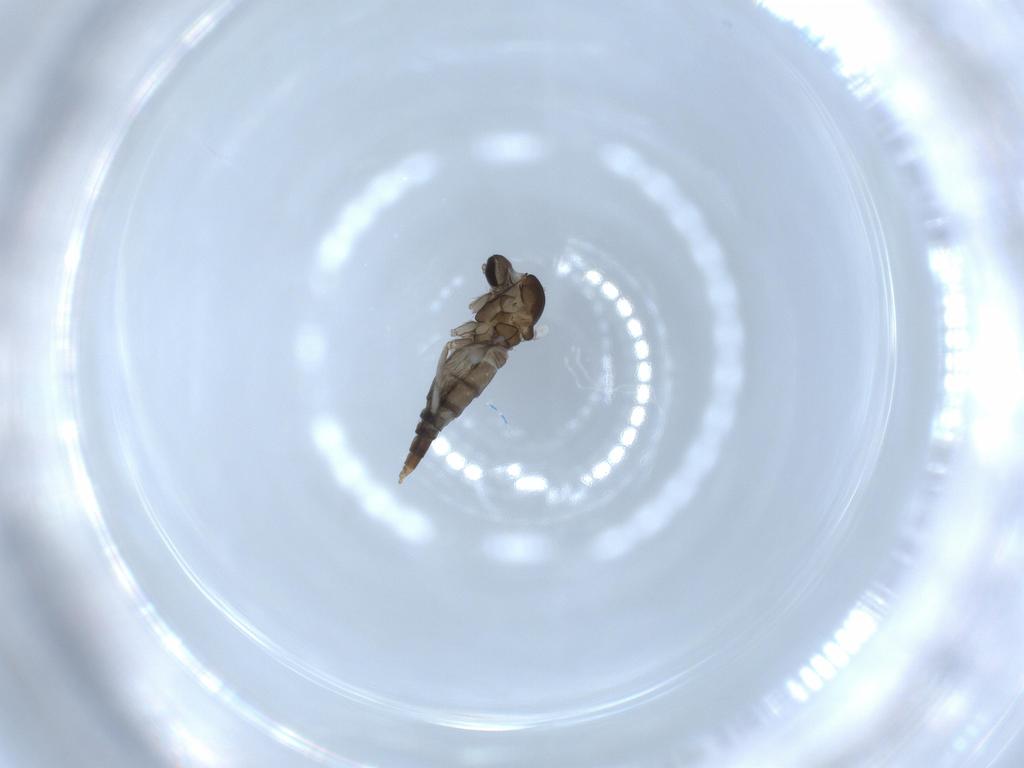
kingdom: Animalia
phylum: Arthropoda
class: Insecta
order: Diptera
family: Cecidomyiidae
